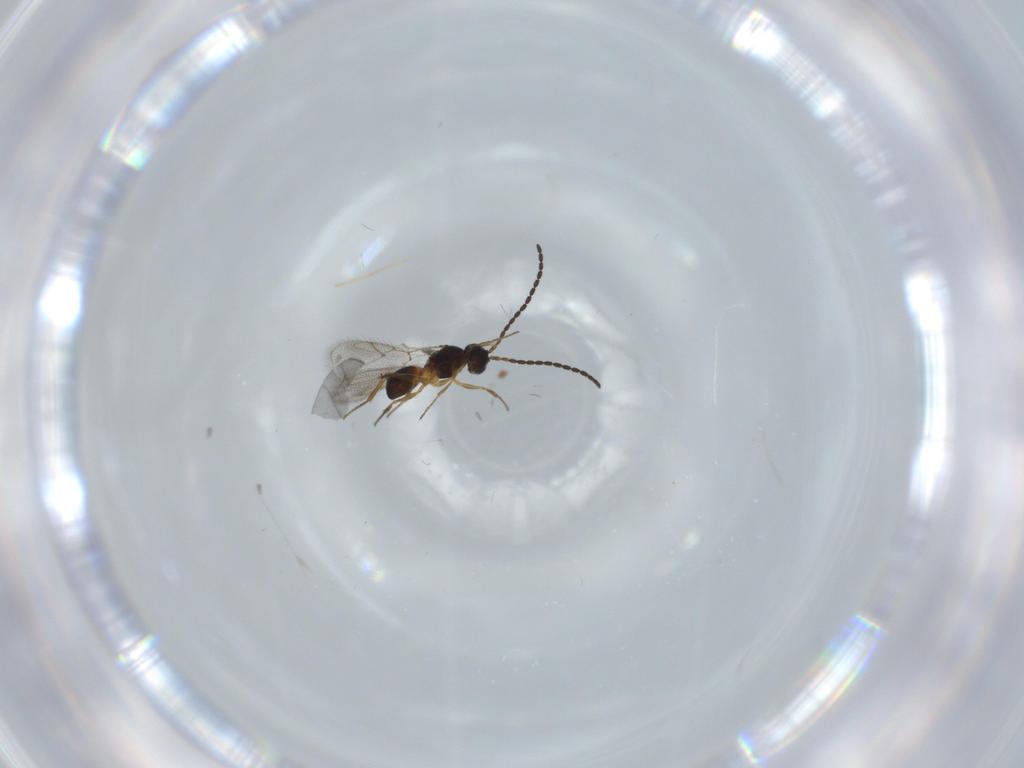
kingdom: Animalia
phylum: Arthropoda
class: Insecta
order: Hymenoptera
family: Figitidae
